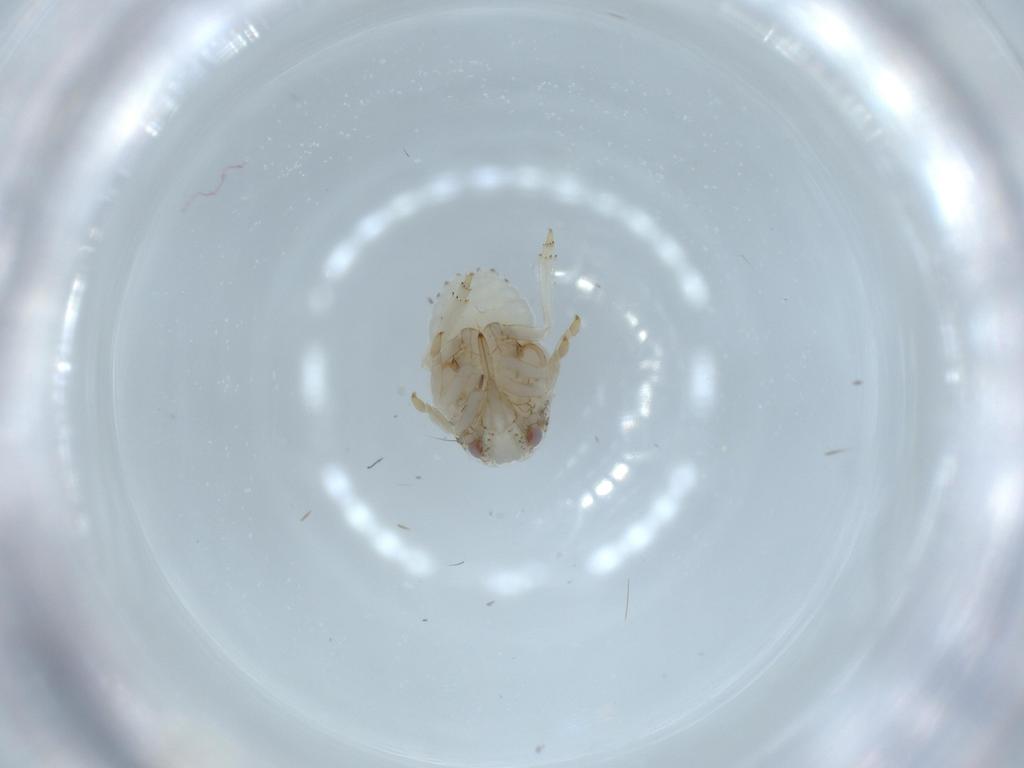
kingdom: Animalia
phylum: Arthropoda
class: Insecta
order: Hemiptera
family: Acanaloniidae
